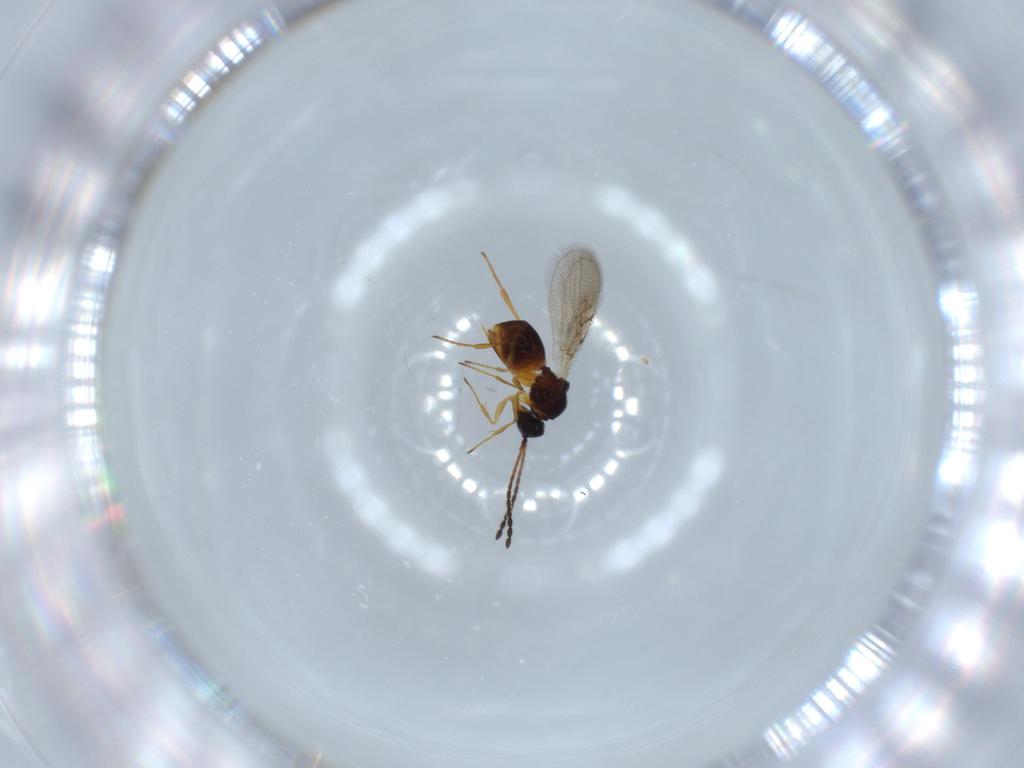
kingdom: Animalia
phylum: Arthropoda
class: Insecta
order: Hymenoptera
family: Figitidae
